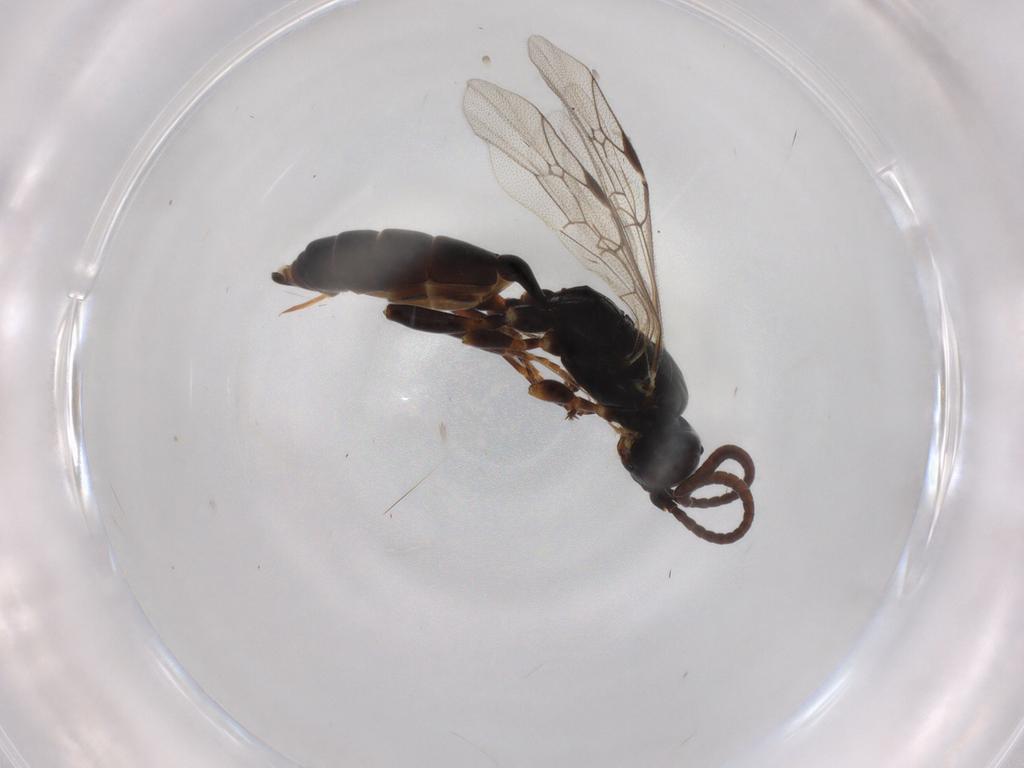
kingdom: Animalia
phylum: Arthropoda
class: Insecta
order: Hymenoptera
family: Ichneumonidae
